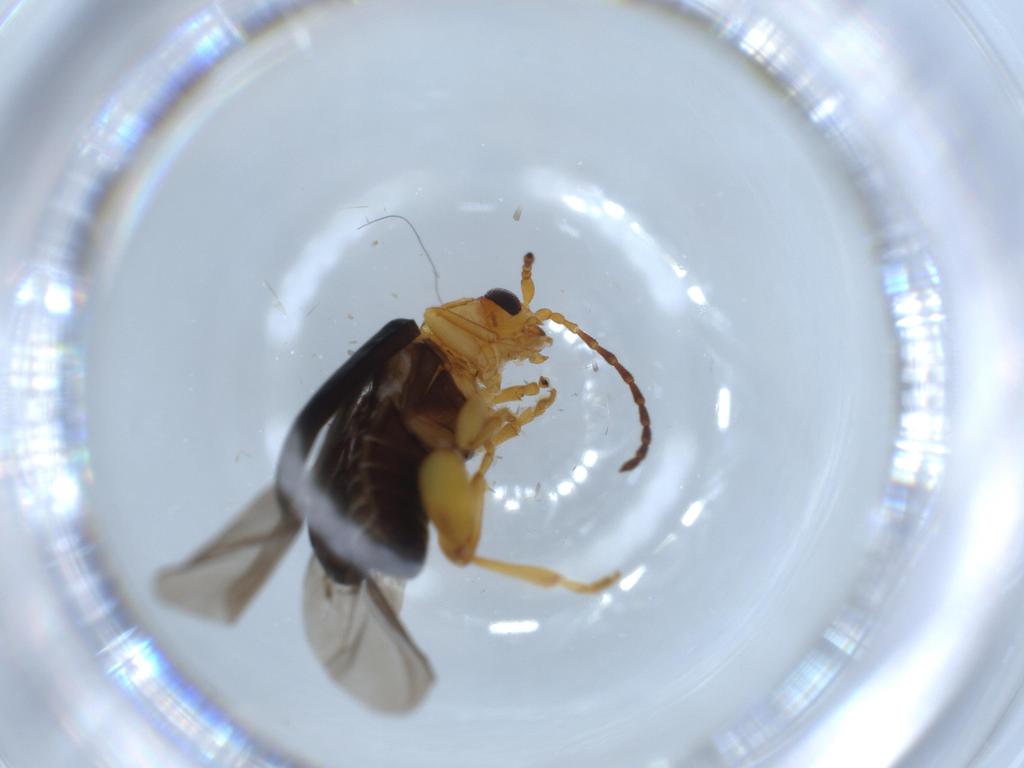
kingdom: Animalia
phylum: Arthropoda
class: Insecta
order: Coleoptera
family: Chrysomelidae
